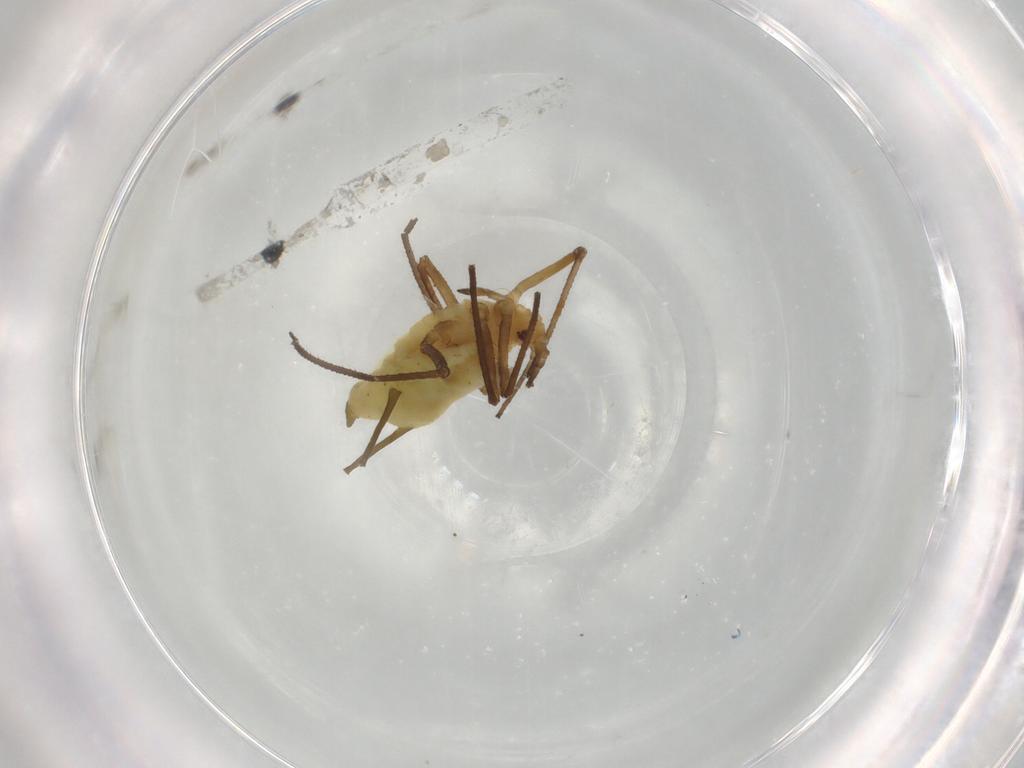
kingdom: Animalia
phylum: Arthropoda
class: Insecta
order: Hemiptera
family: Aphididae
